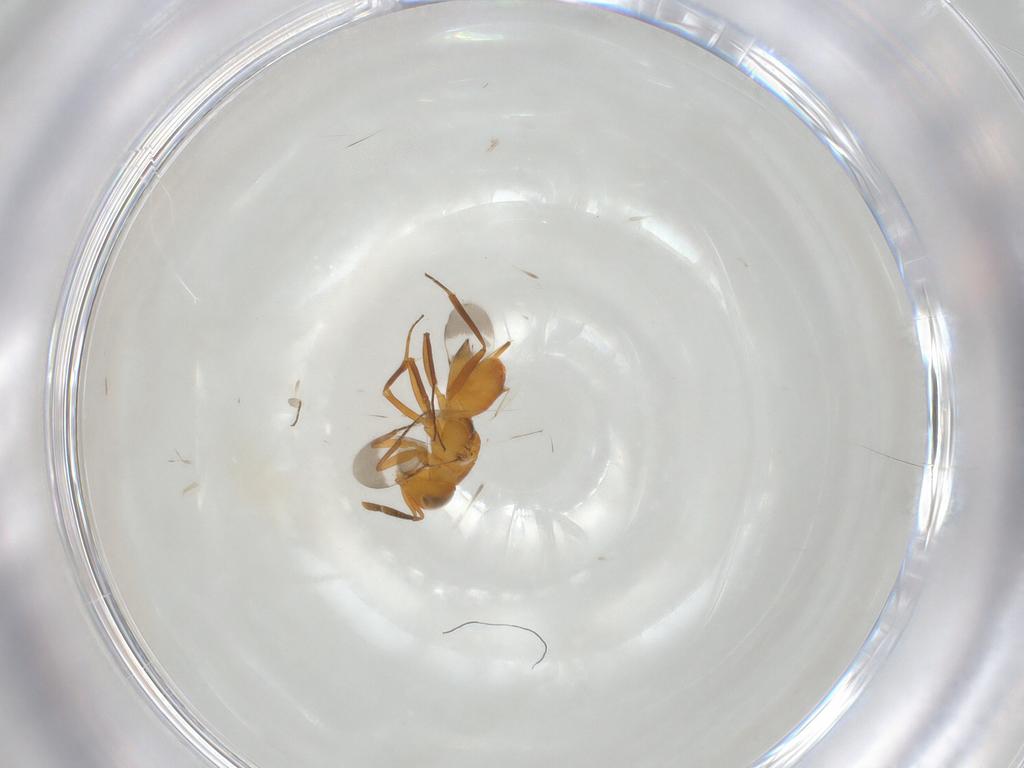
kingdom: Animalia
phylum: Arthropoda
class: Insecta
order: Hymenoptera
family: Encyrtidae
